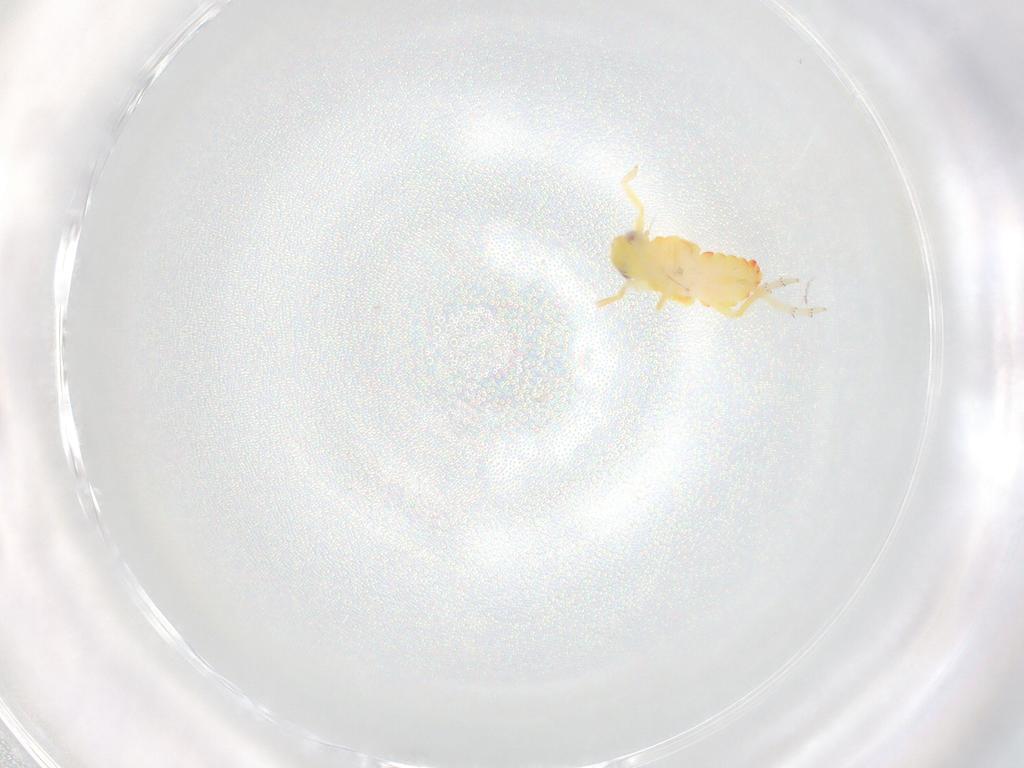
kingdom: Animalia
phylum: Arthropoda
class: Insecta
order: Hemiptera
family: Tropiduchidae
